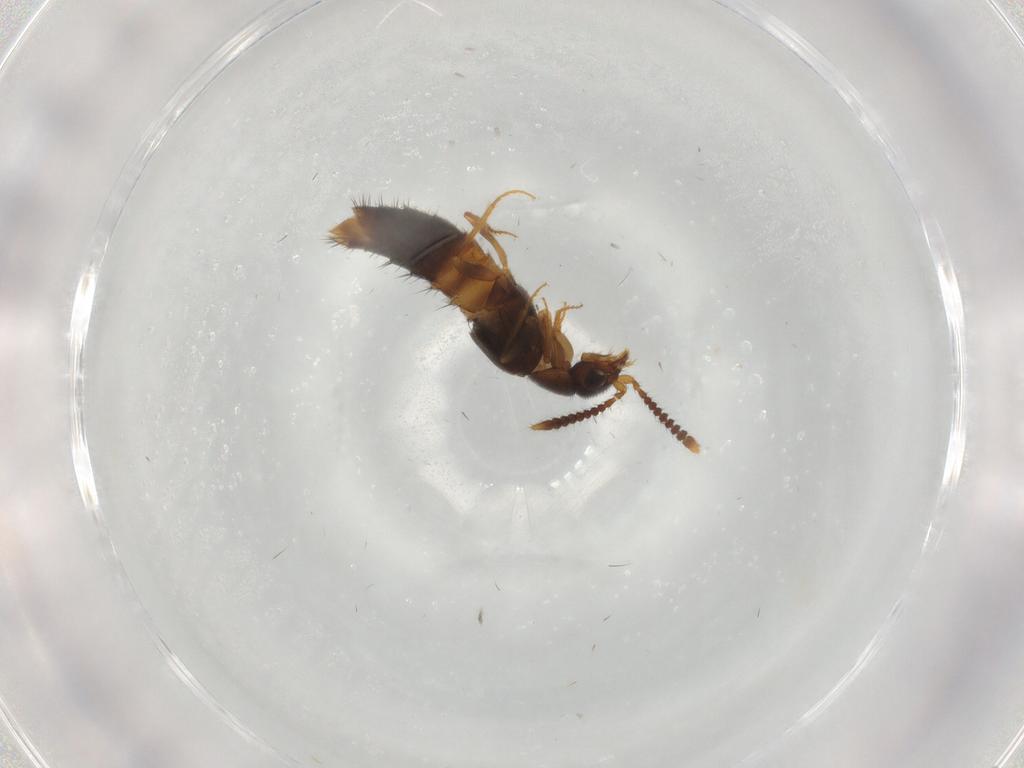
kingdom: Animalia
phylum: Arthropoda
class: Insecta
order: Coleoptera
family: Staphylinidae
